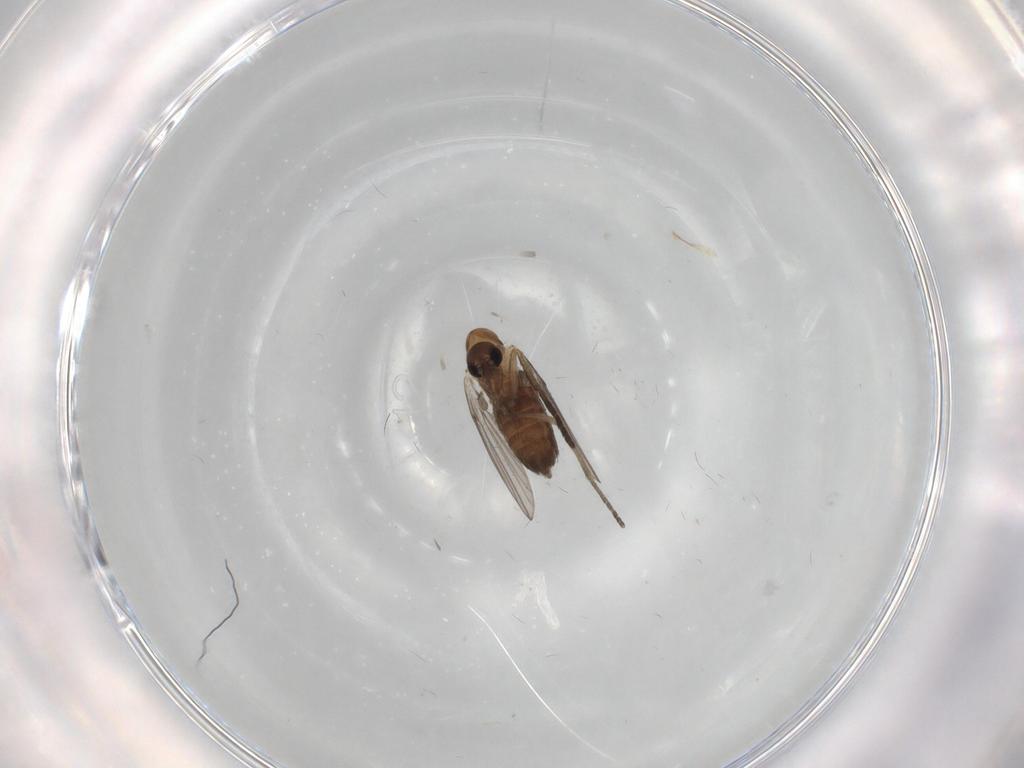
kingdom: Animalia
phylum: Arthropoda
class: Insecta
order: Diptera
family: Psychodidae
